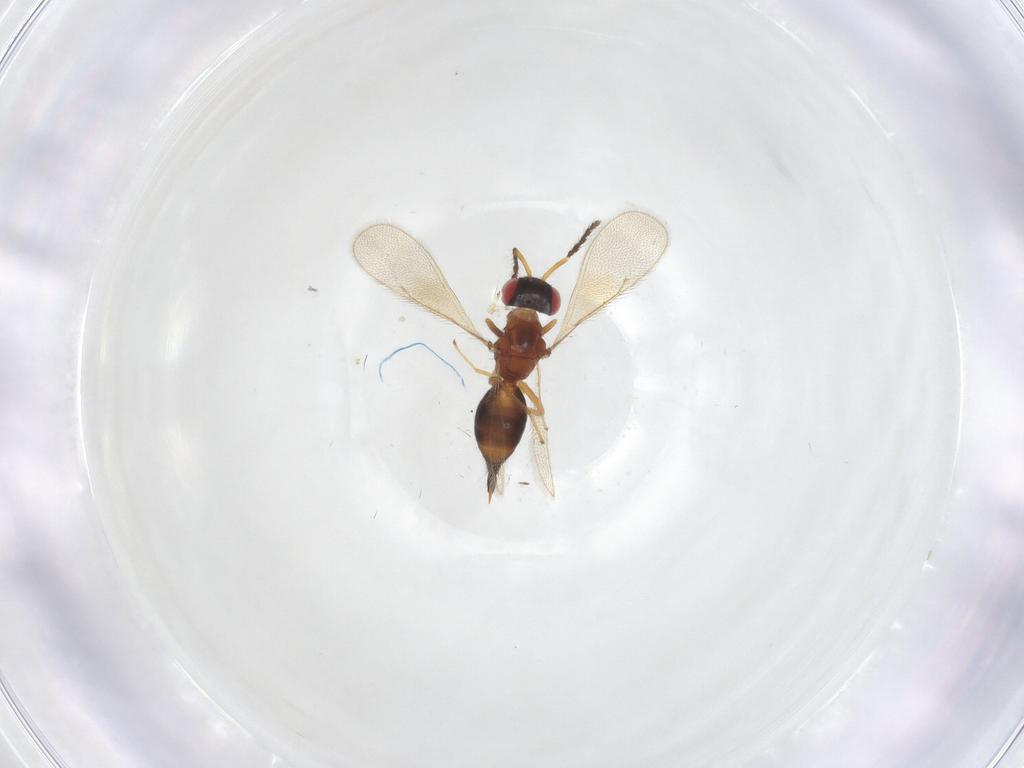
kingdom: Animalia
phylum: Arthropoda
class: Insecta
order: Hymenoptera
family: Eulophidae
